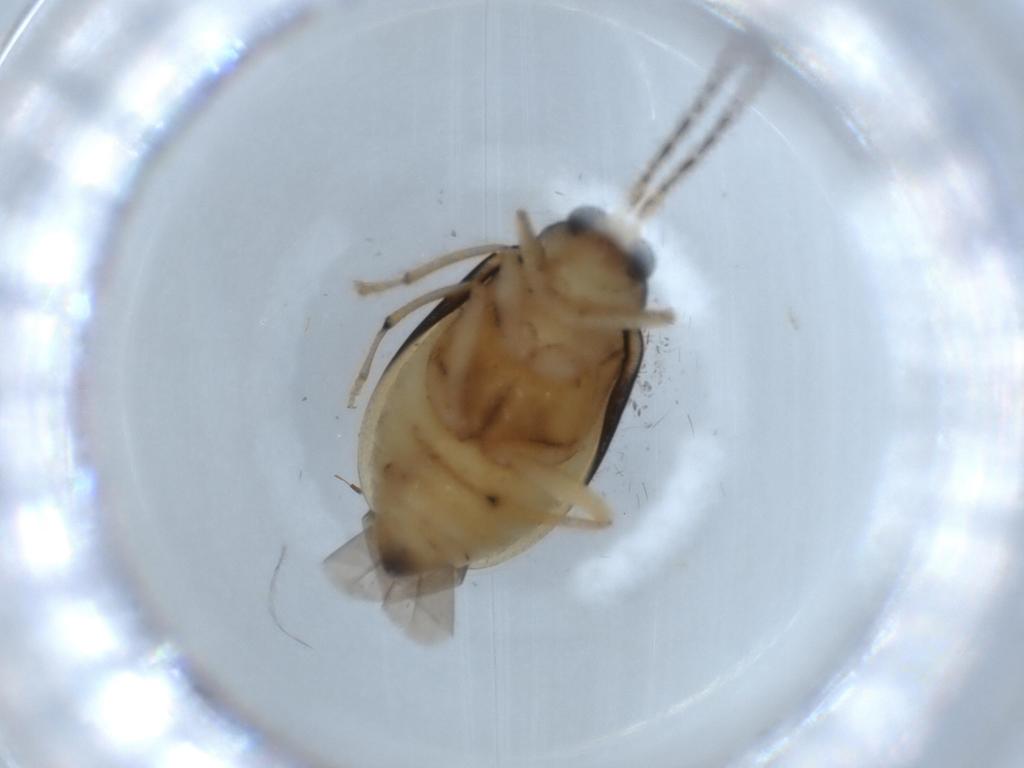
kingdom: Animalia
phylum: Arthropoda
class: Insecta
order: Coleoptera
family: Chrysomelidae
